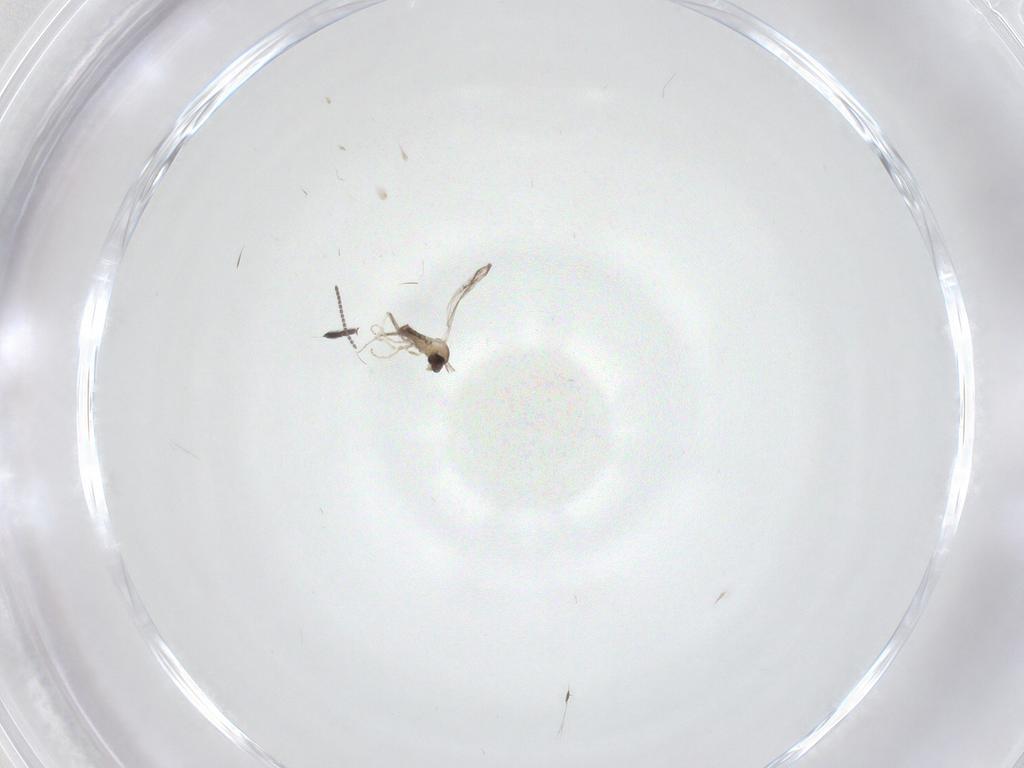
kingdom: Animalia
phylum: Arthropoda
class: Insecta
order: Diptera
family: Cecidomyiidae
